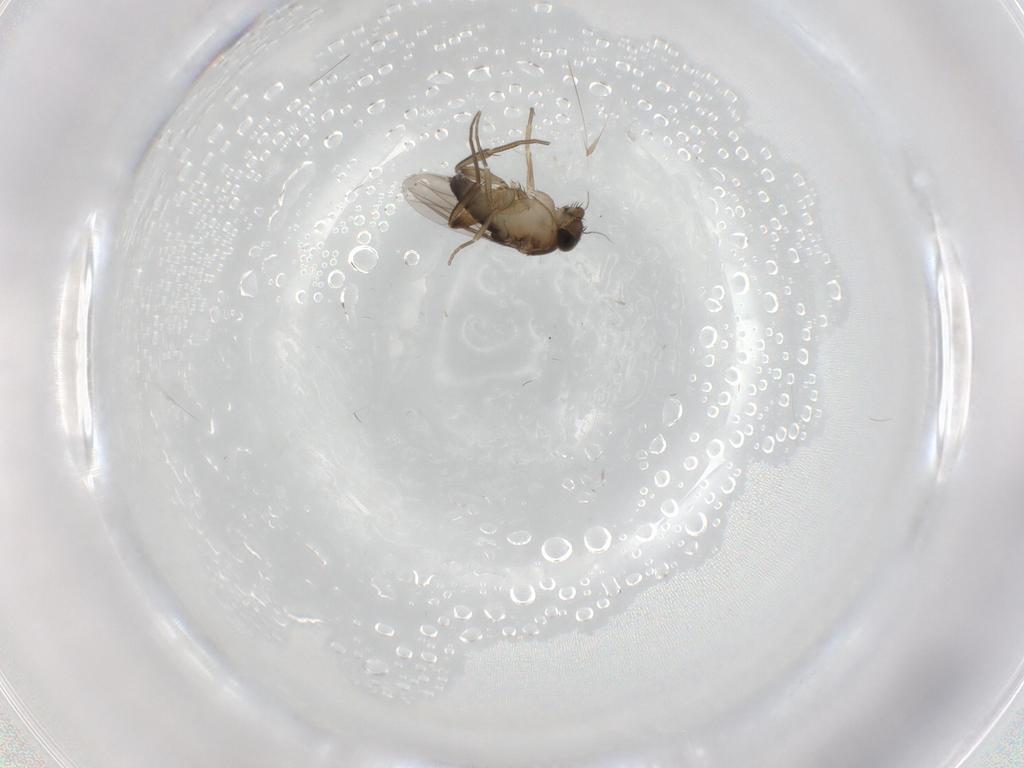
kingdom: Animalia
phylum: Arthropoda
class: Insecta
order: Diptera
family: Phoridae
